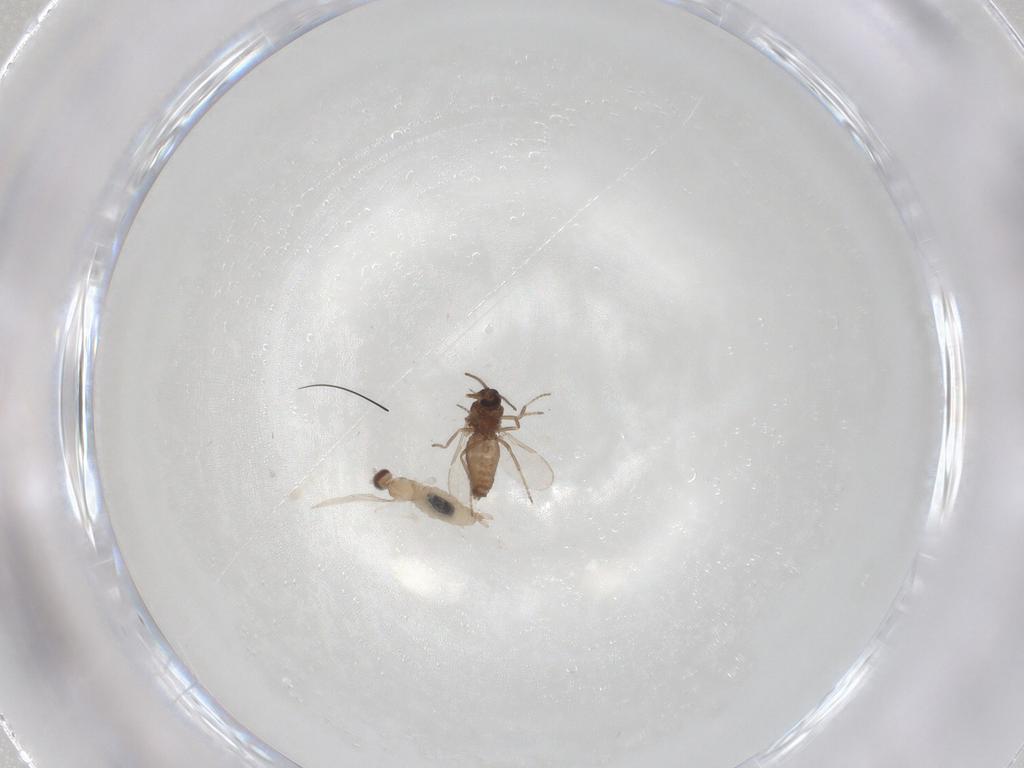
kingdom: Animalia
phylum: Arthropoda
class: Insecta
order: Diptera
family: Cecidomyiidae
